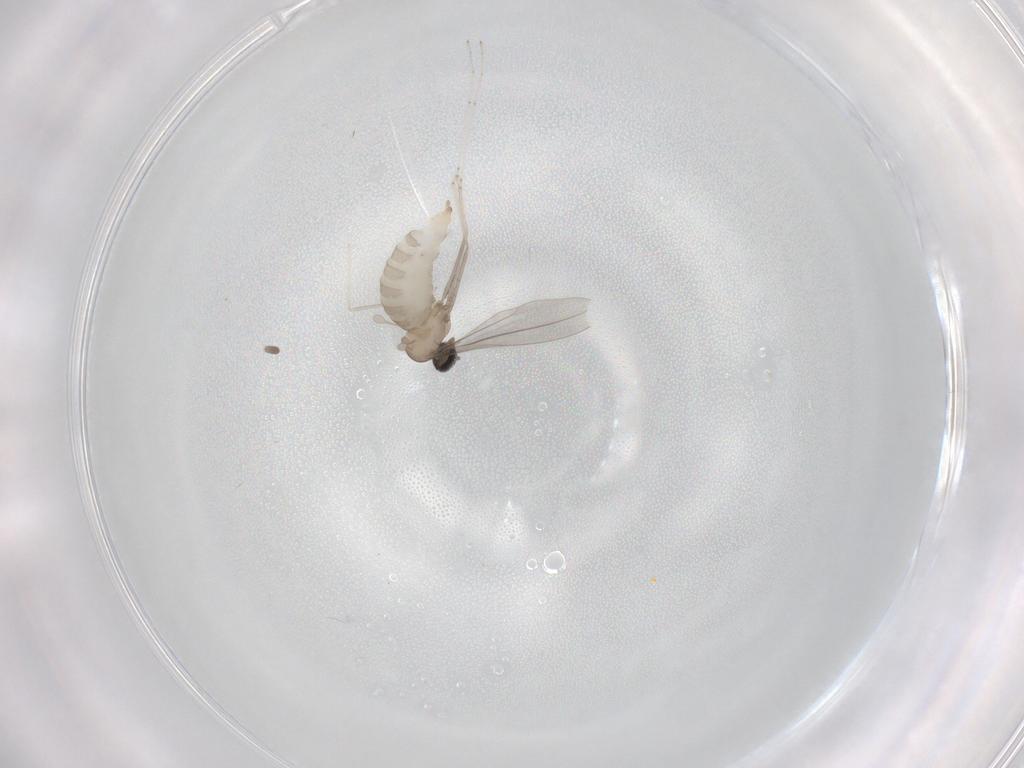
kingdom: Animalia
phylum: Arthropoda
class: Insecta
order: Diptera
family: Cecidomyiidae
